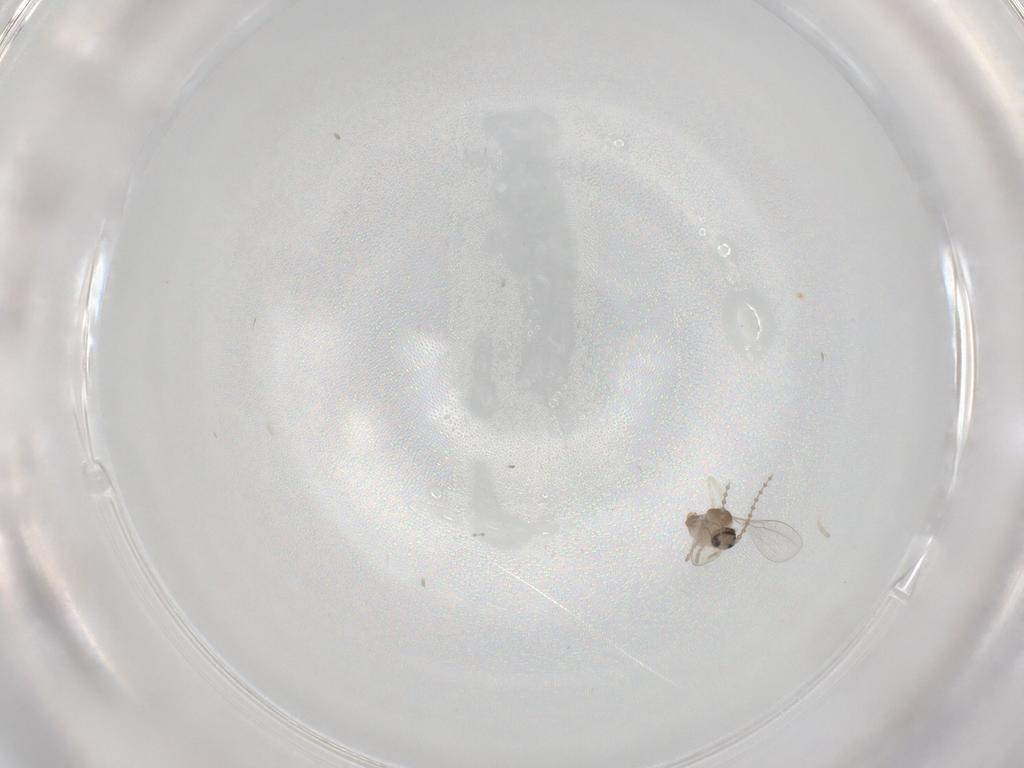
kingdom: Animalia
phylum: Arthropoda
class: Insecta
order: Diptera
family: Cecidomyiidae
